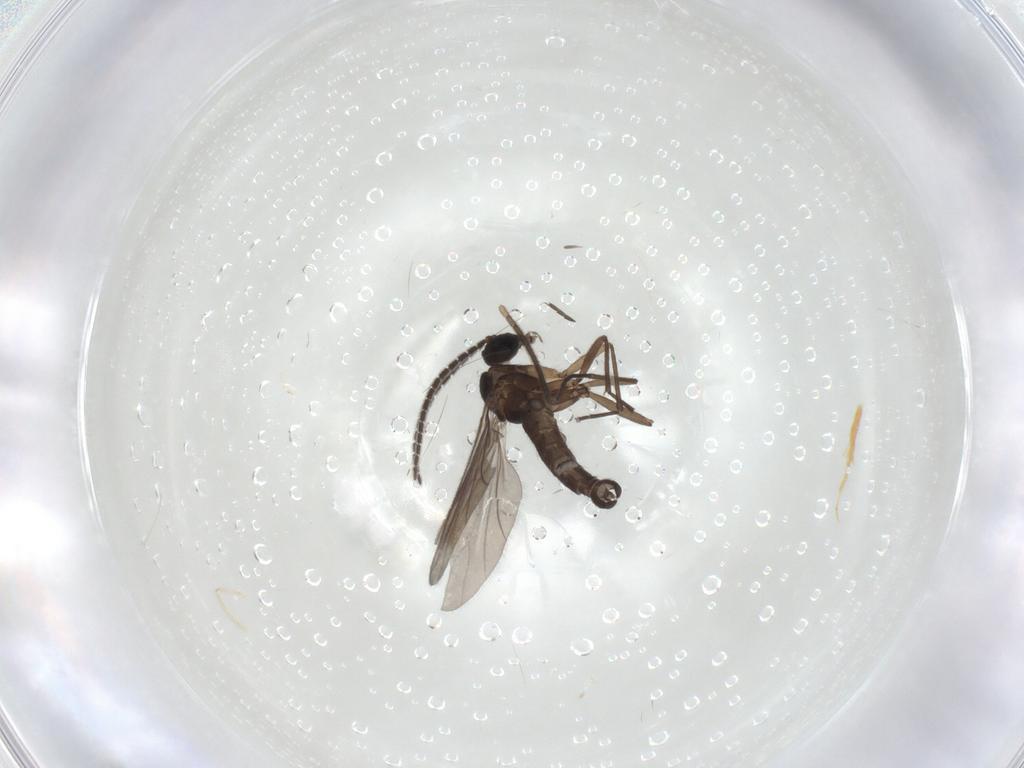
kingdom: Animalia
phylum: Arthropoda
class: Insecta
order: Diptera
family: Sciaridae
